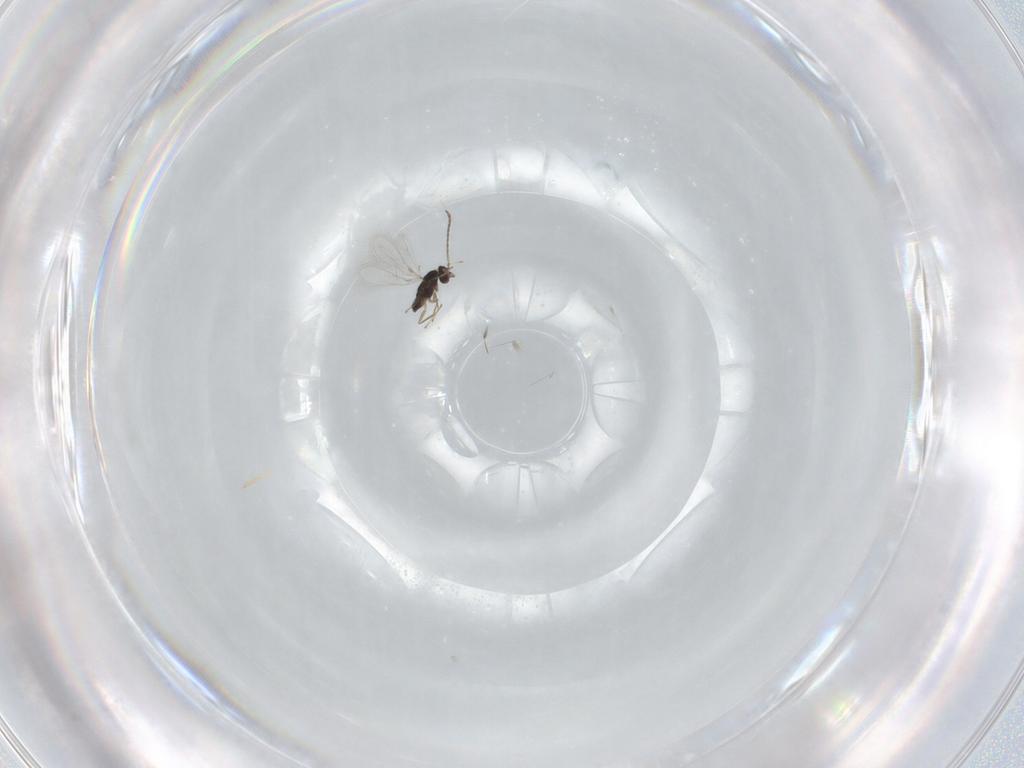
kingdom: Animalia
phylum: Arthropoda
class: Insecta
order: Hymenoptera
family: Mymaridae
